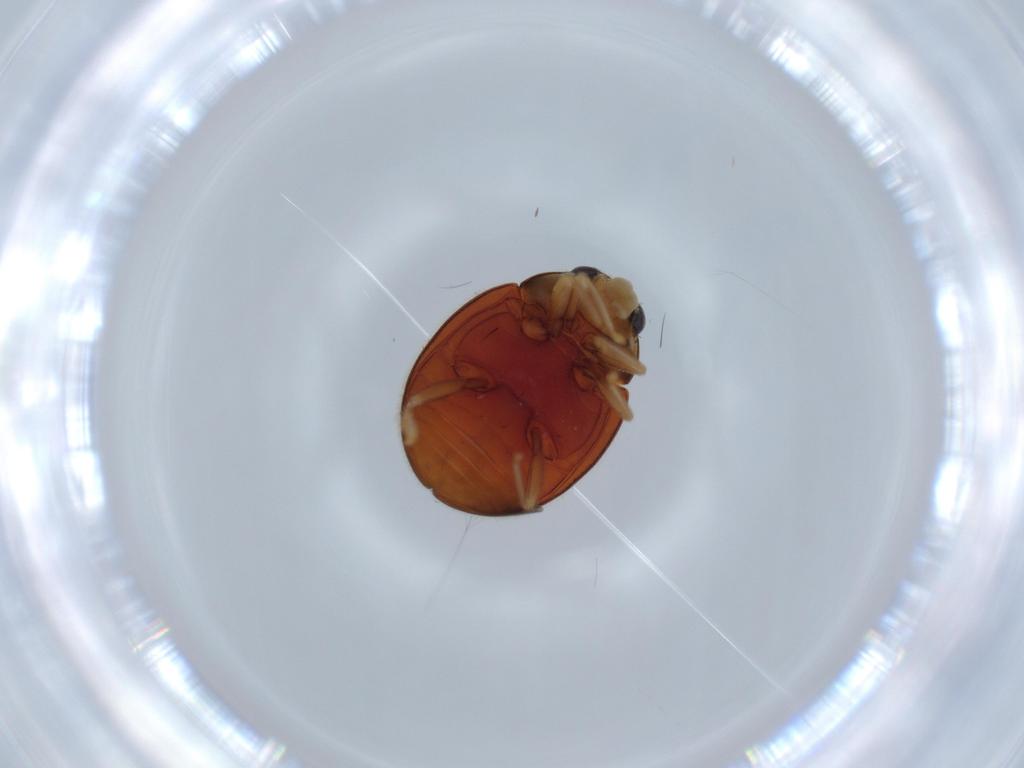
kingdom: Animalia
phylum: Arthropoda
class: Insecta
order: Coleoptera
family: Coccinellidae
